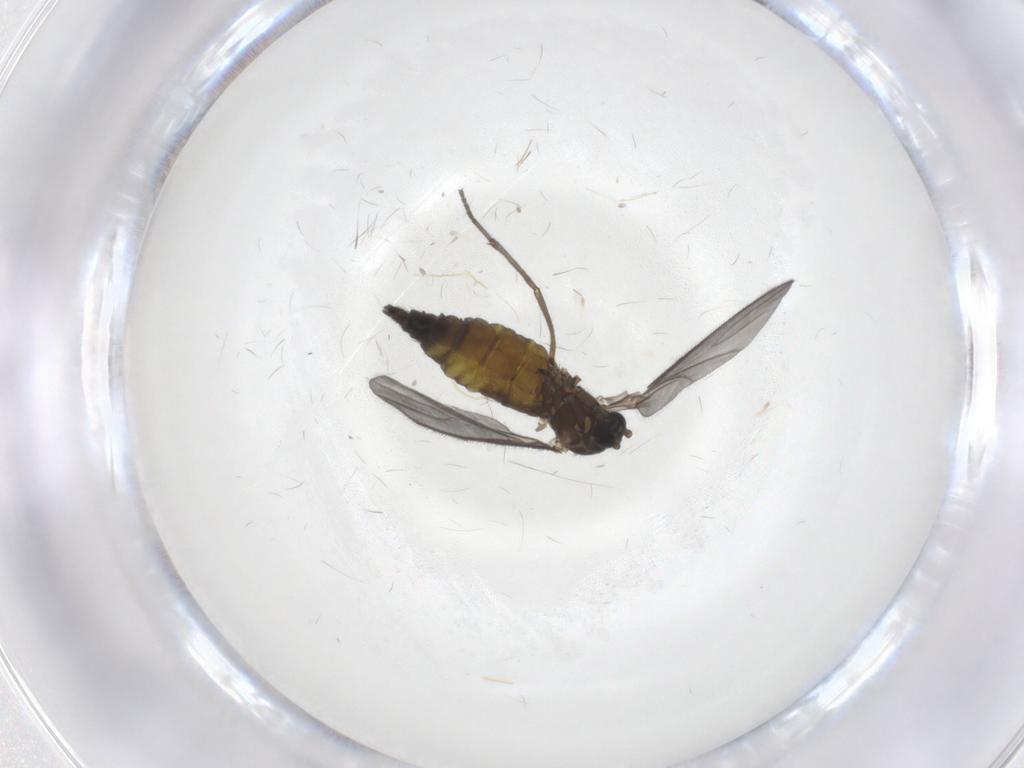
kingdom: Animalia
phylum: Arthropoda
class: Insecta
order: Diptera
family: Sciaridae
